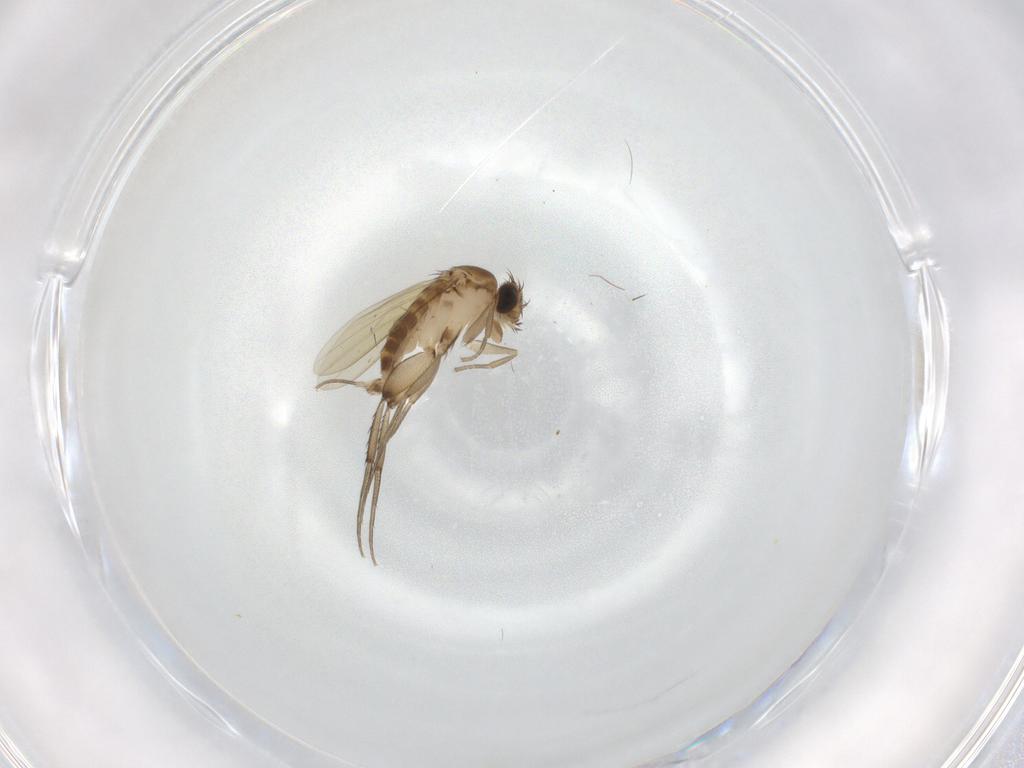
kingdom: Animalia
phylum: Arthropoda
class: Insecta
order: Diptera
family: Phoridae
